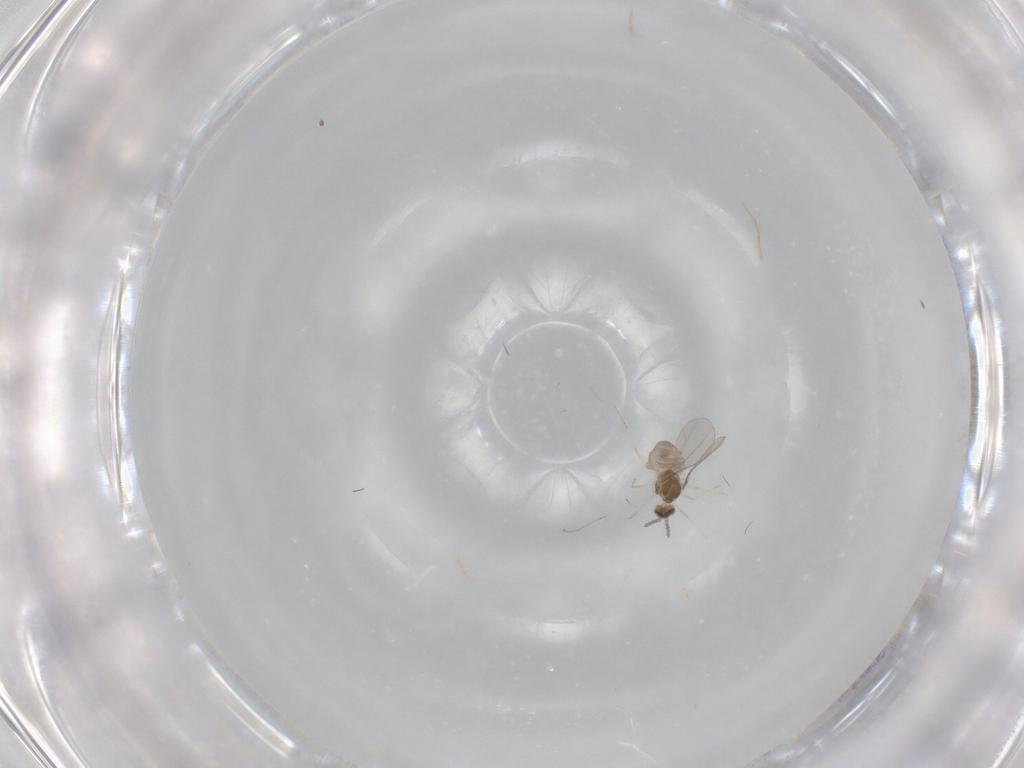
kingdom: Animalia
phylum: Arthropoda
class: Insecta
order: Diptera
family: Cecidomyiidae
